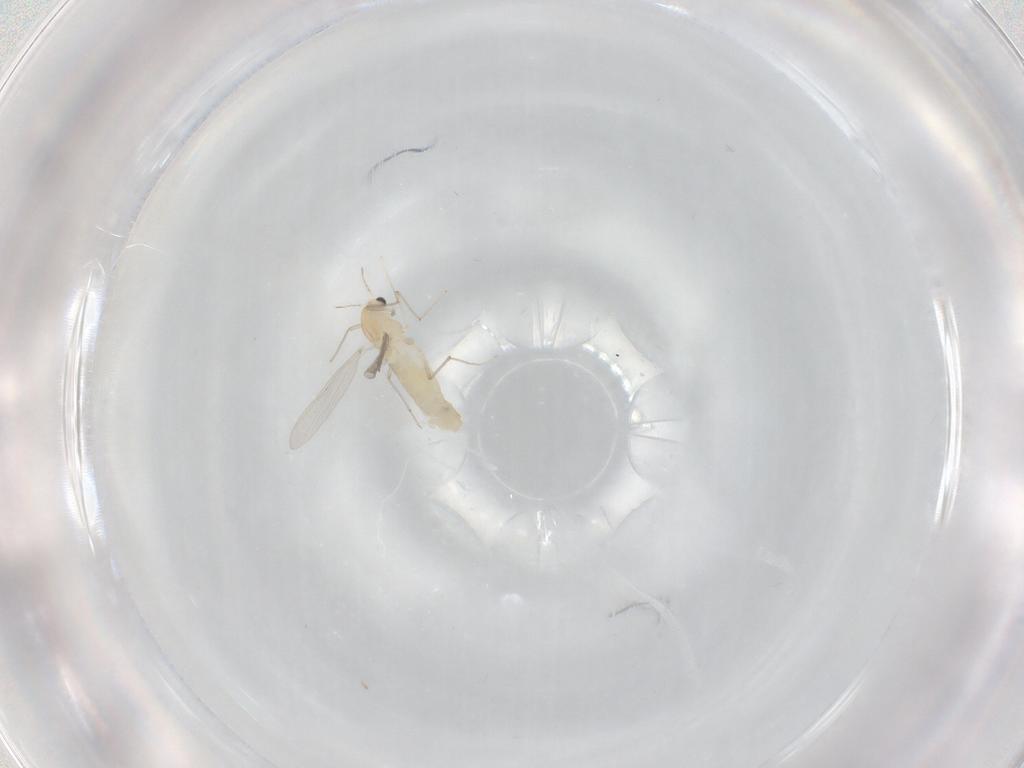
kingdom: Animalia
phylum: Arthropoda
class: Insecta
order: Diptera
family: Chironomidae
